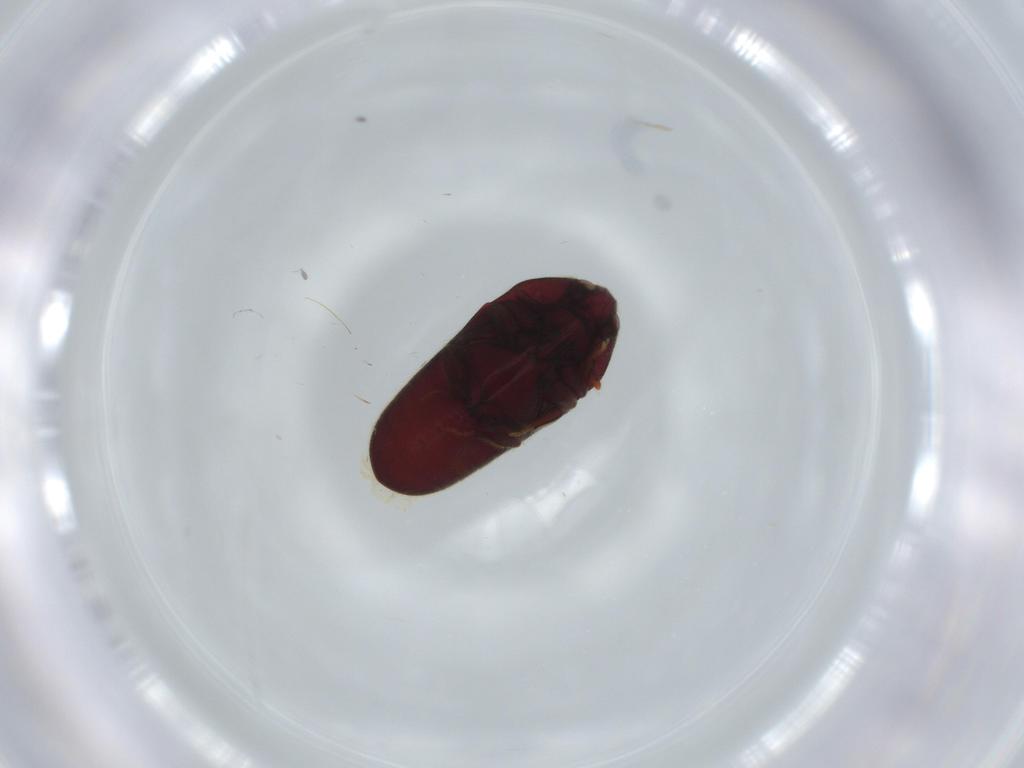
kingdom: Animalia
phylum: Arthropoda
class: Insecta
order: Coleoptera
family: Throscidae
